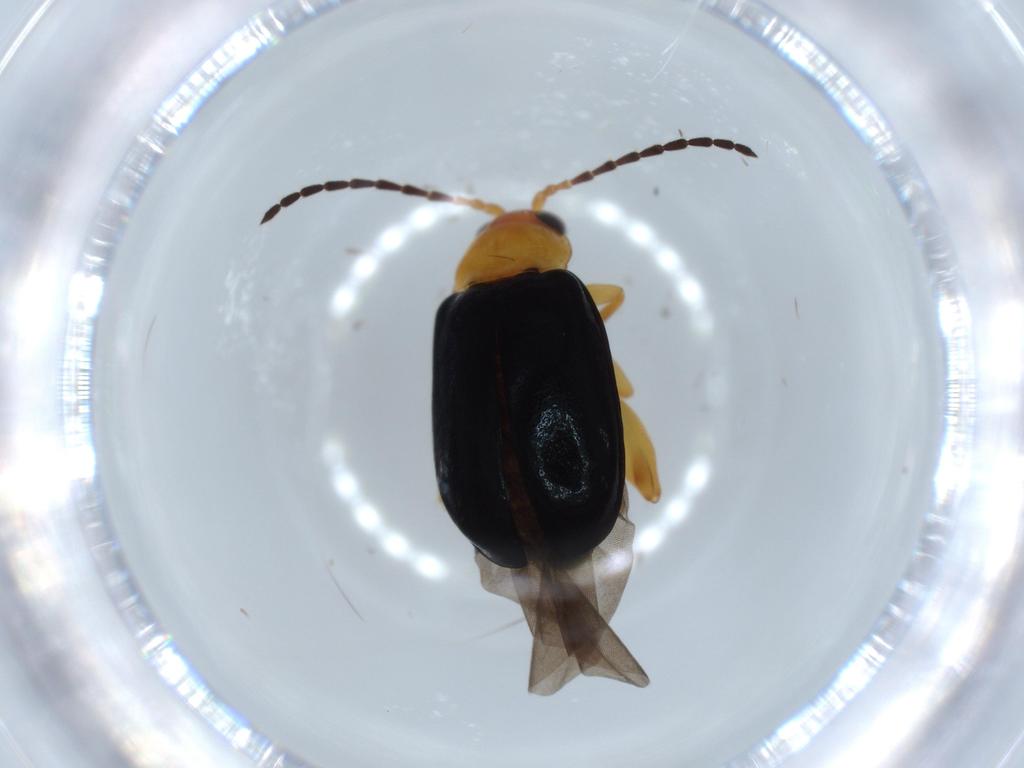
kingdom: Animalia
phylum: Arthropoda
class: Insecta
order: Coleoptera
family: Chrysomelidae
